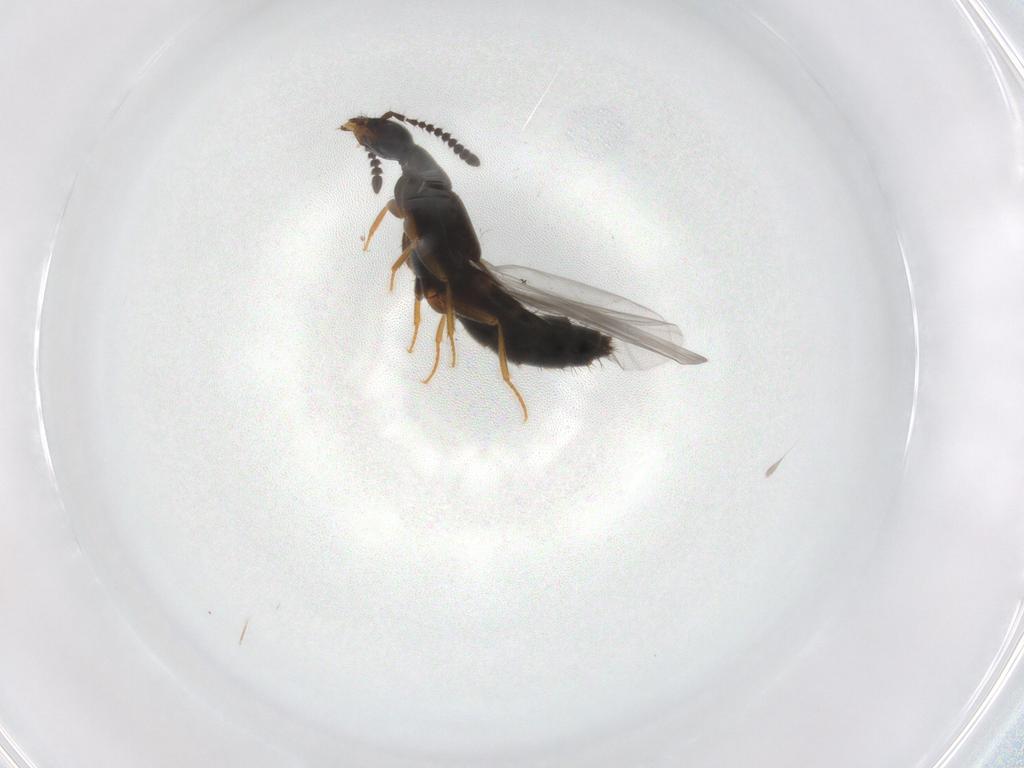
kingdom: Animalia
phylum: Arthropoda
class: Insecta
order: Coleoptera
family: Staphylinidae
